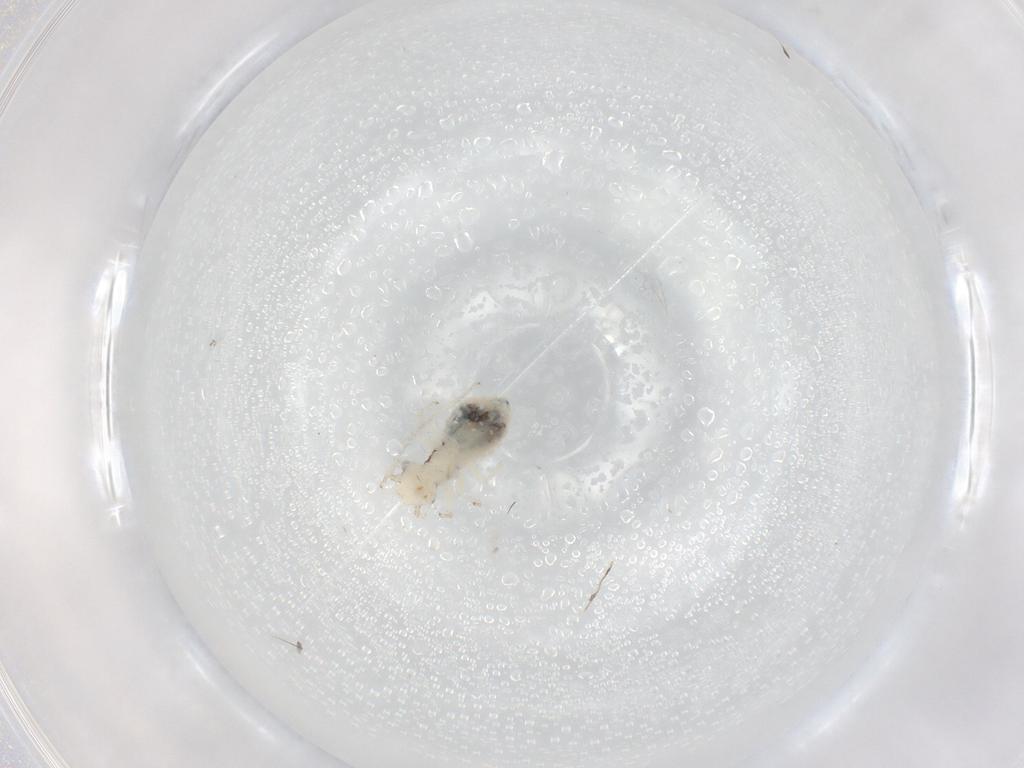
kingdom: Animalia
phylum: Arthropoda
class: Insecta
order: Psocodea
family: Caeciliusidae
